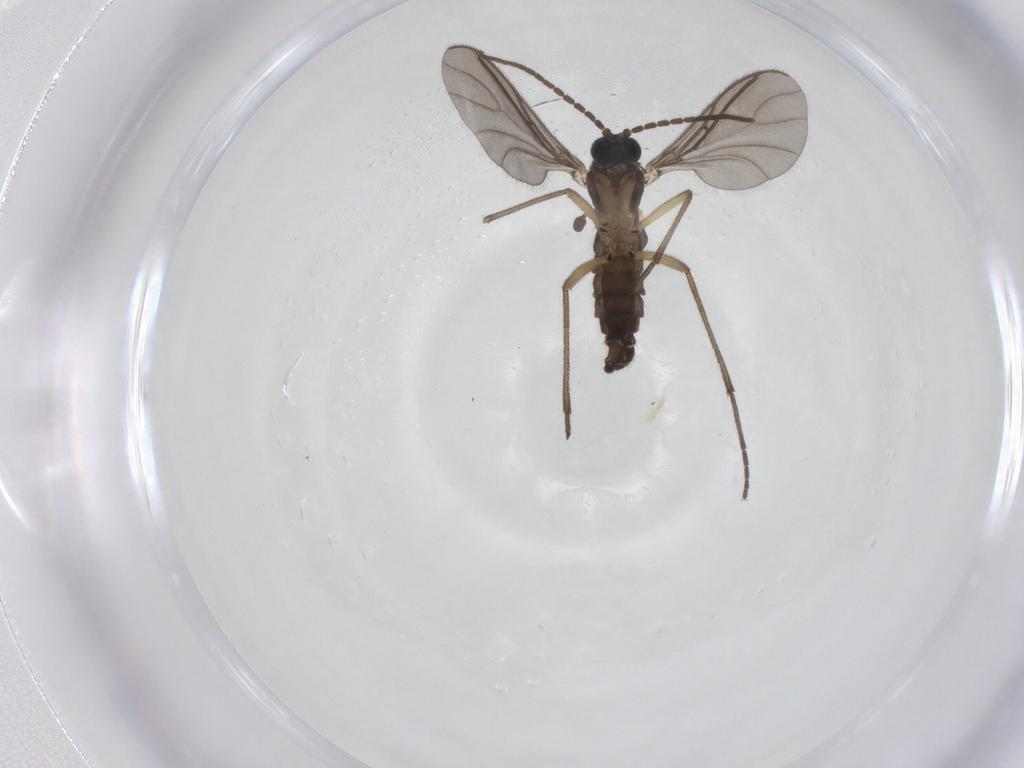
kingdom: Animalia
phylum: Arthropoda
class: Insecta
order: Diptera
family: Sciaridae
